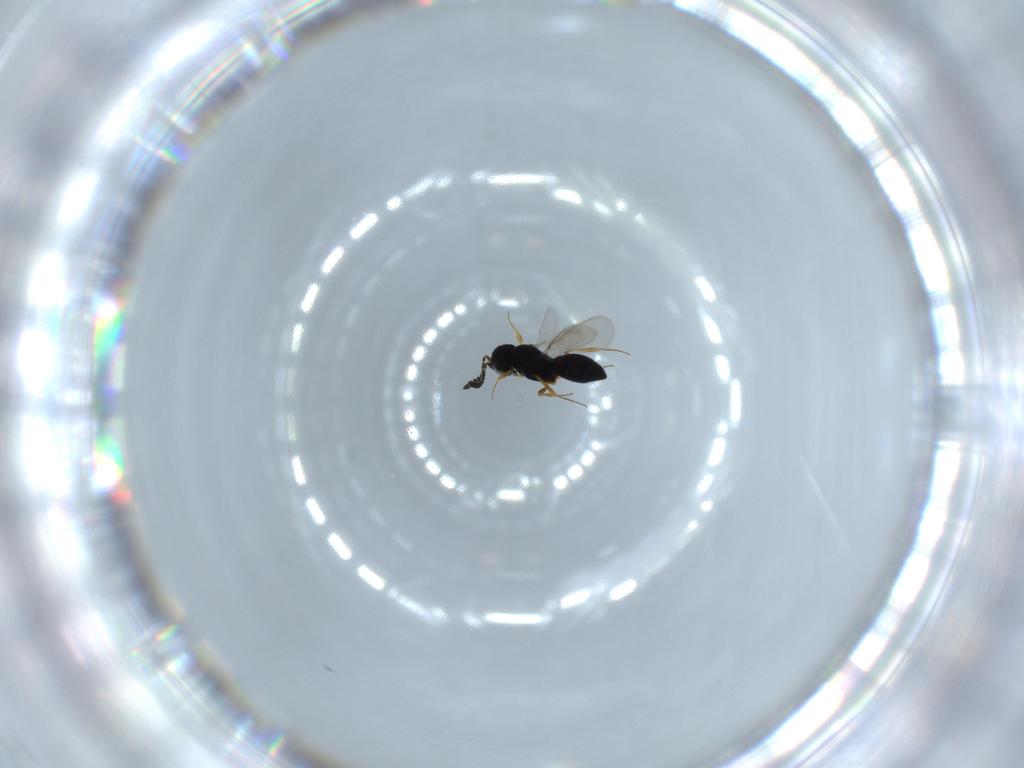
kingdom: Animalia
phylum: Arthropoda
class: Insecta
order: Hymenoptera
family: Scelionidae
